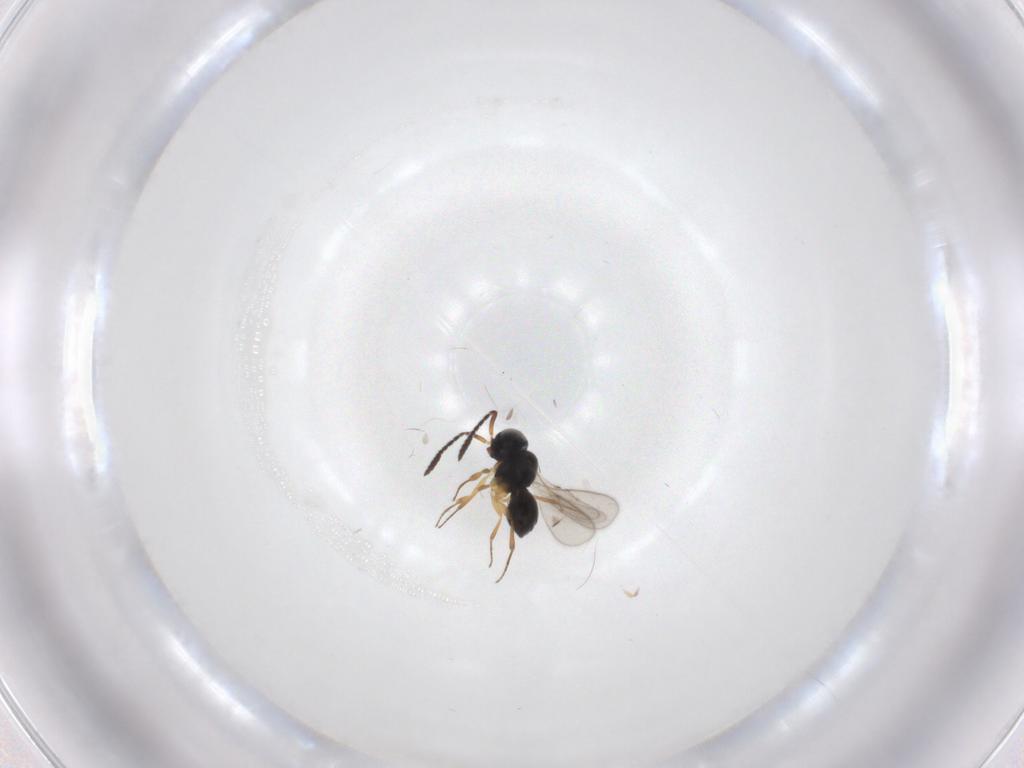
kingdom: Animalia
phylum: Arthropoda
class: Insecta
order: Hymenoptera
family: Scelionidae
